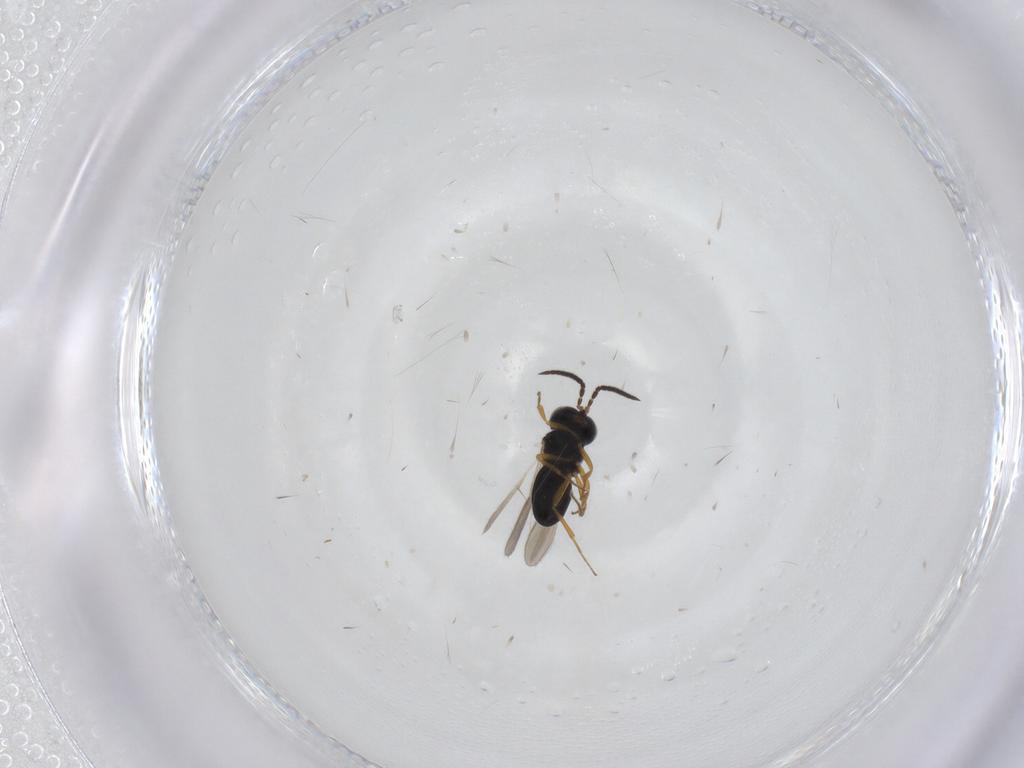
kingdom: Animalia
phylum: Arthropoda
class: Insecta
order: Hymenoptera
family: Scelionidae
